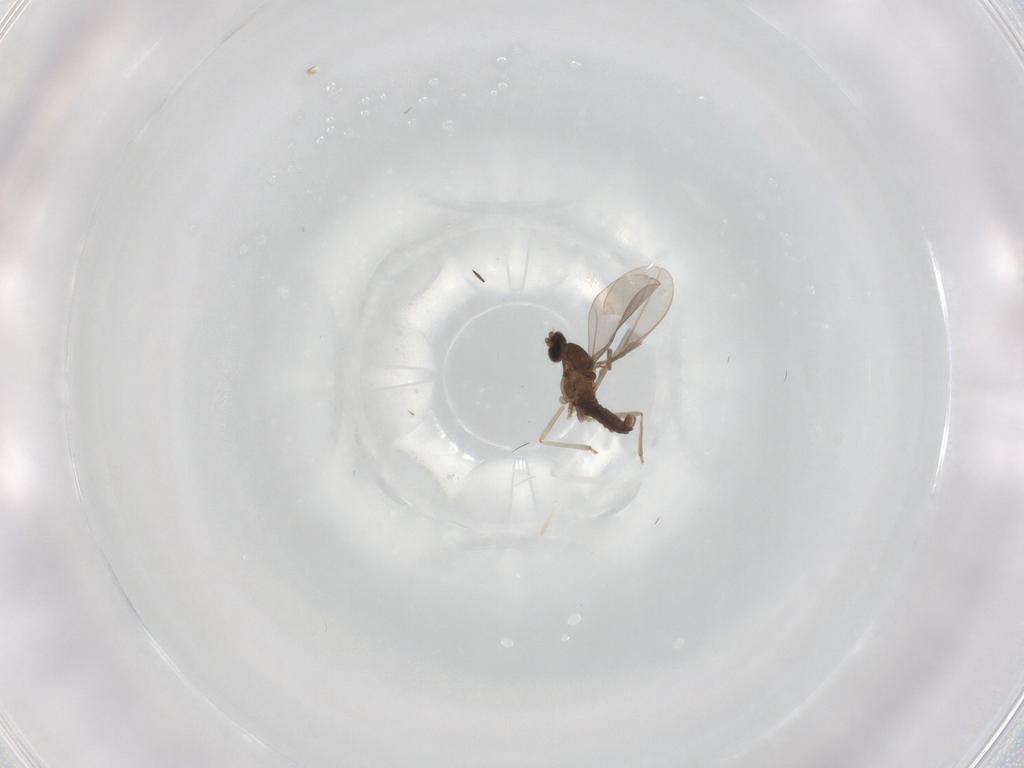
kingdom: Animalia
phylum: Arthropoda
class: Insecta
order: Diptera
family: Cecidomyiidae
